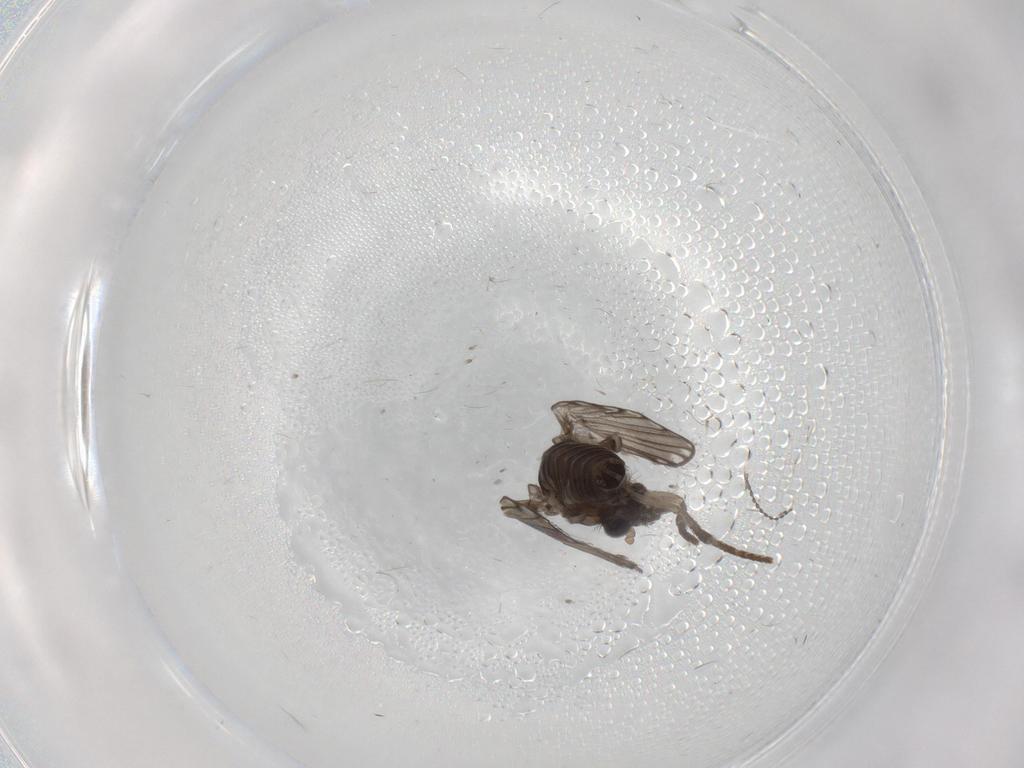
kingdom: Animalia
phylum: Arthropoda
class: Insecta
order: Diptera
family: Psychodidae
